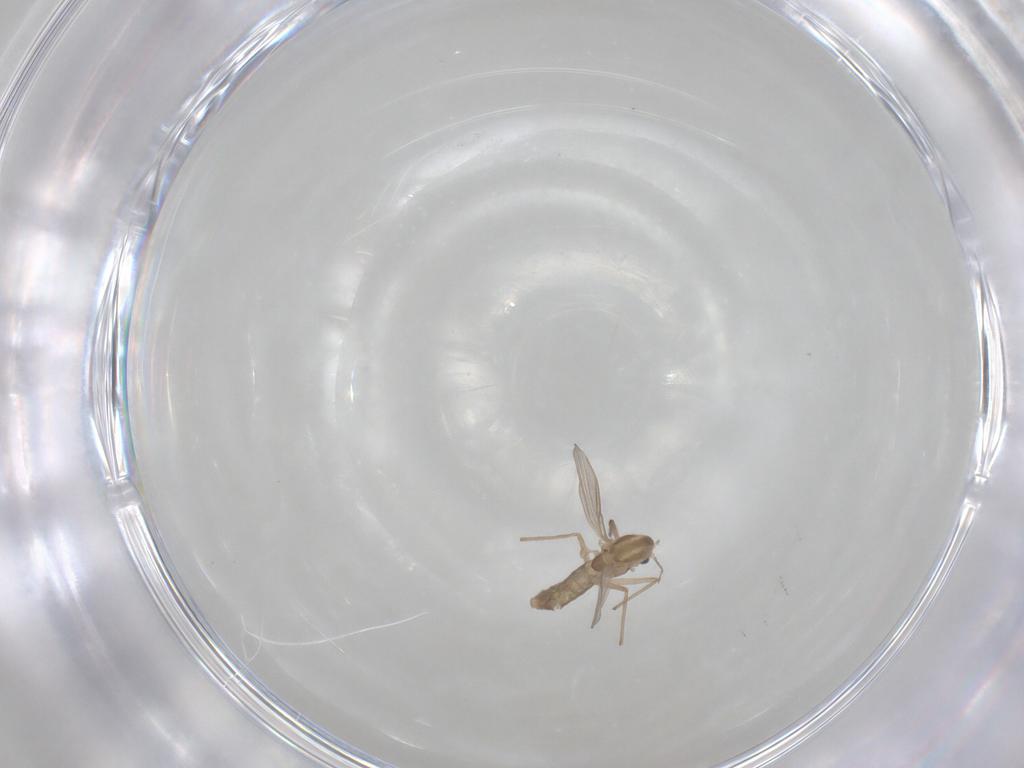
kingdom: Animalia
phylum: Arthropoda
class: Insecta
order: Diptera
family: Chironomidae
